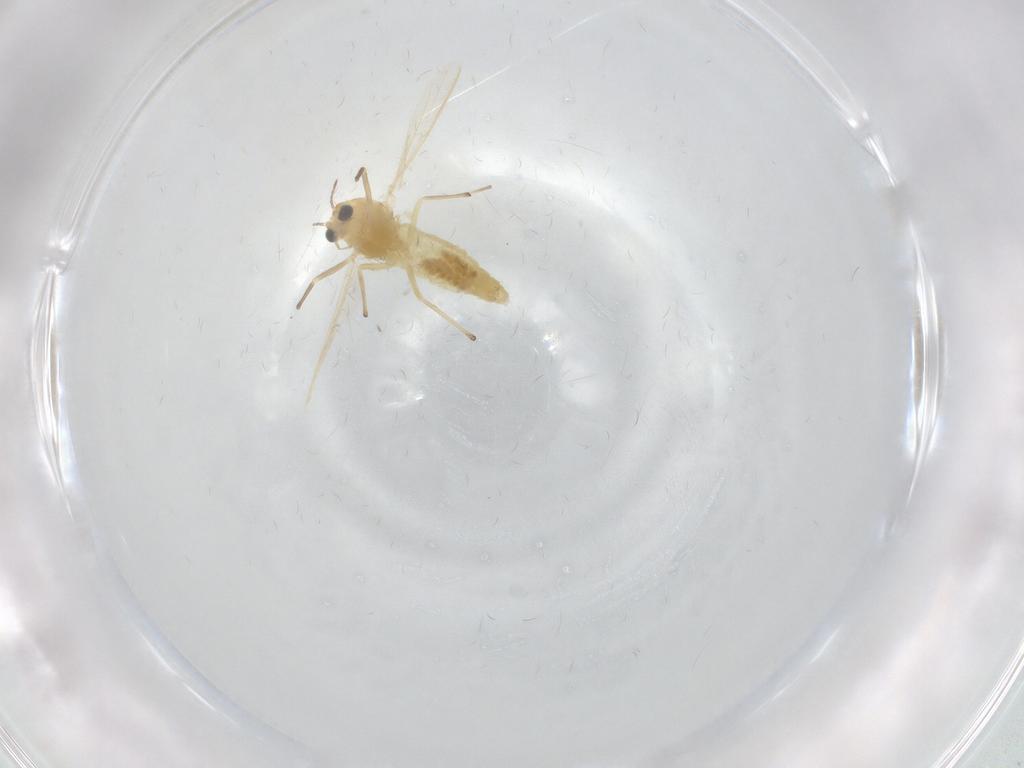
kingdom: Animalia
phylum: Arthropoda
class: Insecta
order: Diptera
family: Chironomidae
